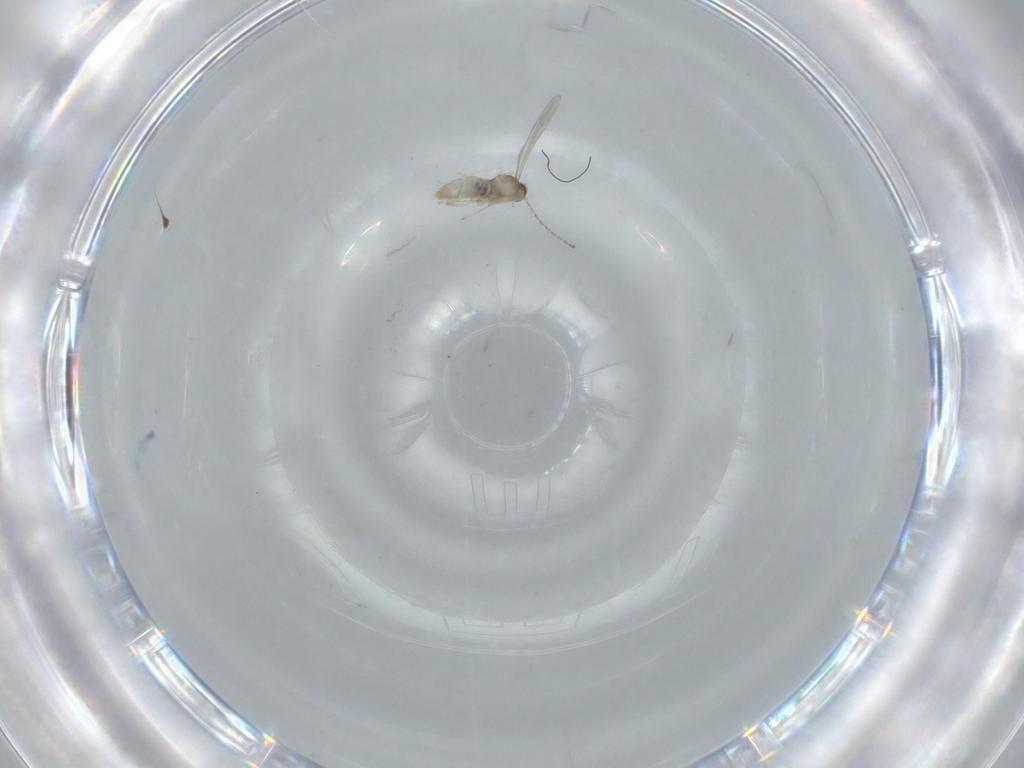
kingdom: Animalia
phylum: Arthropoda
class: Insecta
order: Diptera
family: Cecidomyiidae
